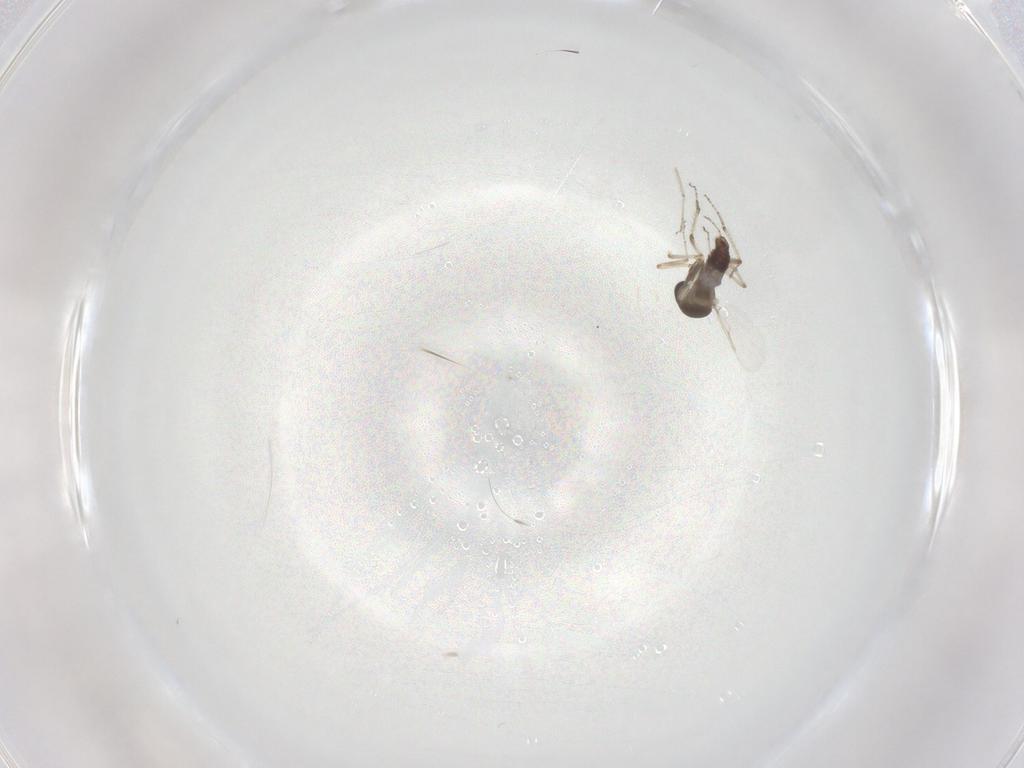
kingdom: Animalia
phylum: Arthropoda
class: Insecta
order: Diptera
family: Ceratopogonidae
